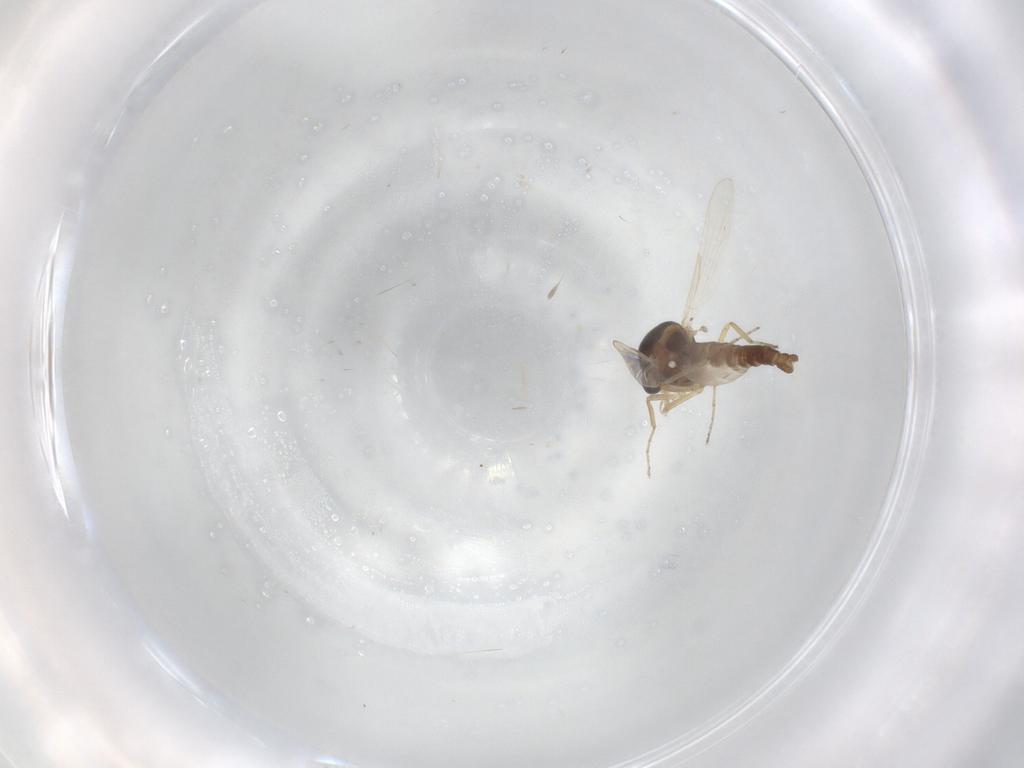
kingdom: Animalia
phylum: Arthropoda
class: Insecta
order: Diptera
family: Ceratopogonidae
